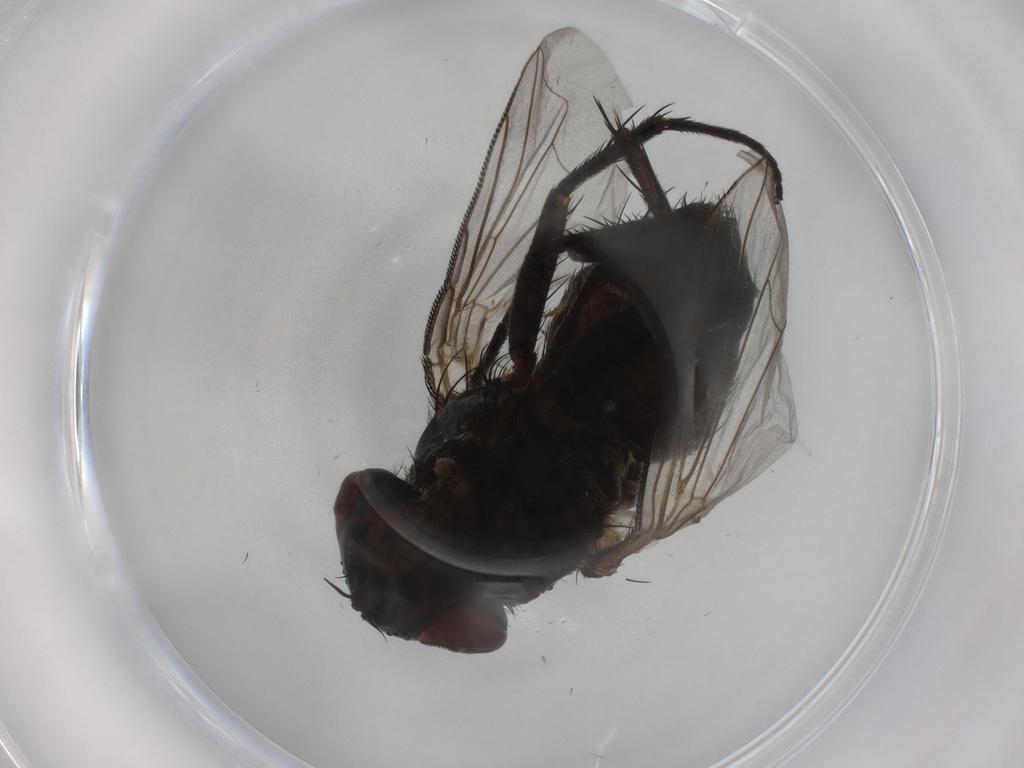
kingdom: Animalia
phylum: Arthropoda
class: Insecta
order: Diptera
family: Tachinidae
